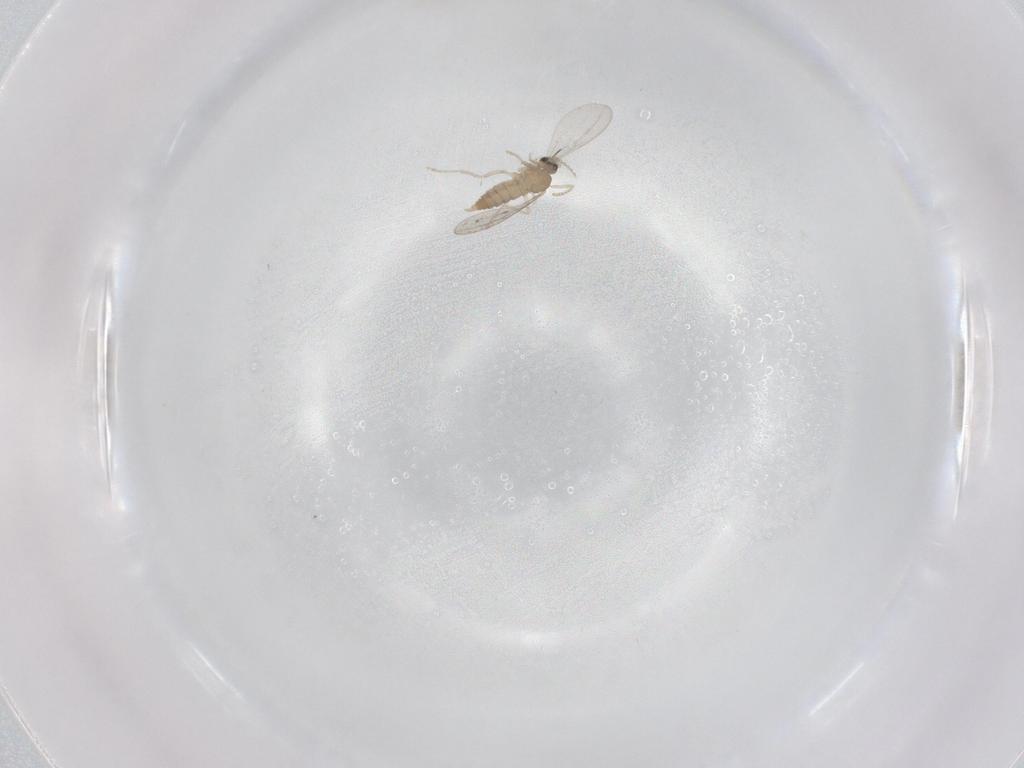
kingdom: Animalia
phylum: Arthropoda
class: Insecta
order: Diptera
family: Cecidomyiidae
